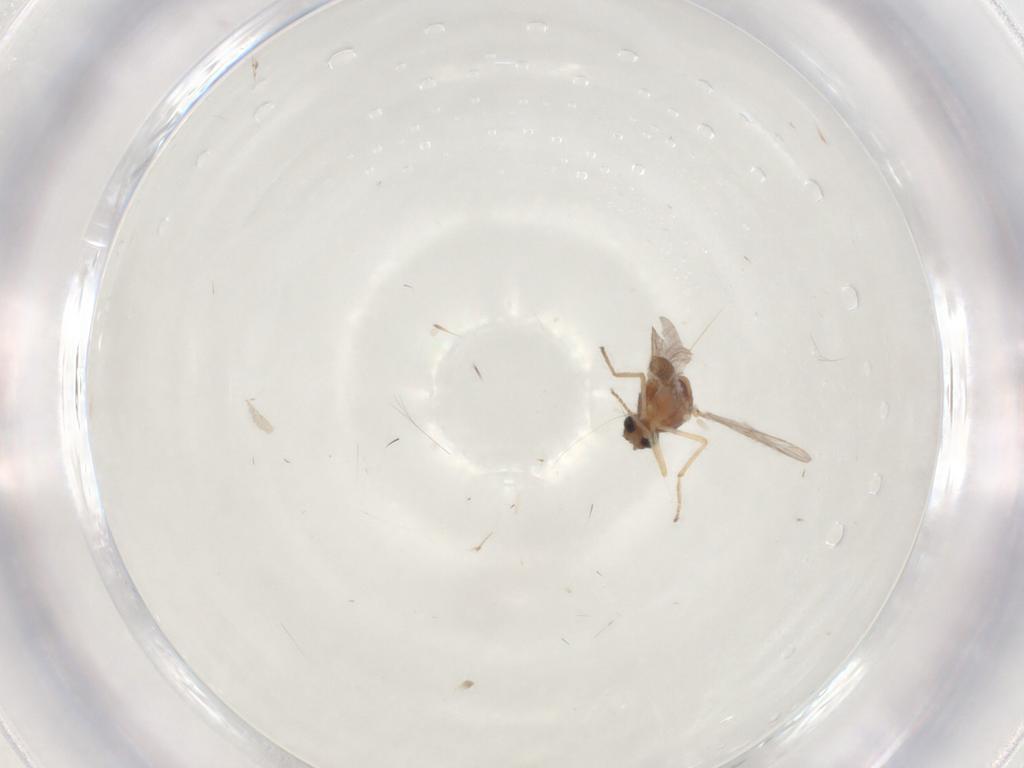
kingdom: Animalia
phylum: Arthropoda
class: Insecta
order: Diptera
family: Ceratopogonidae
